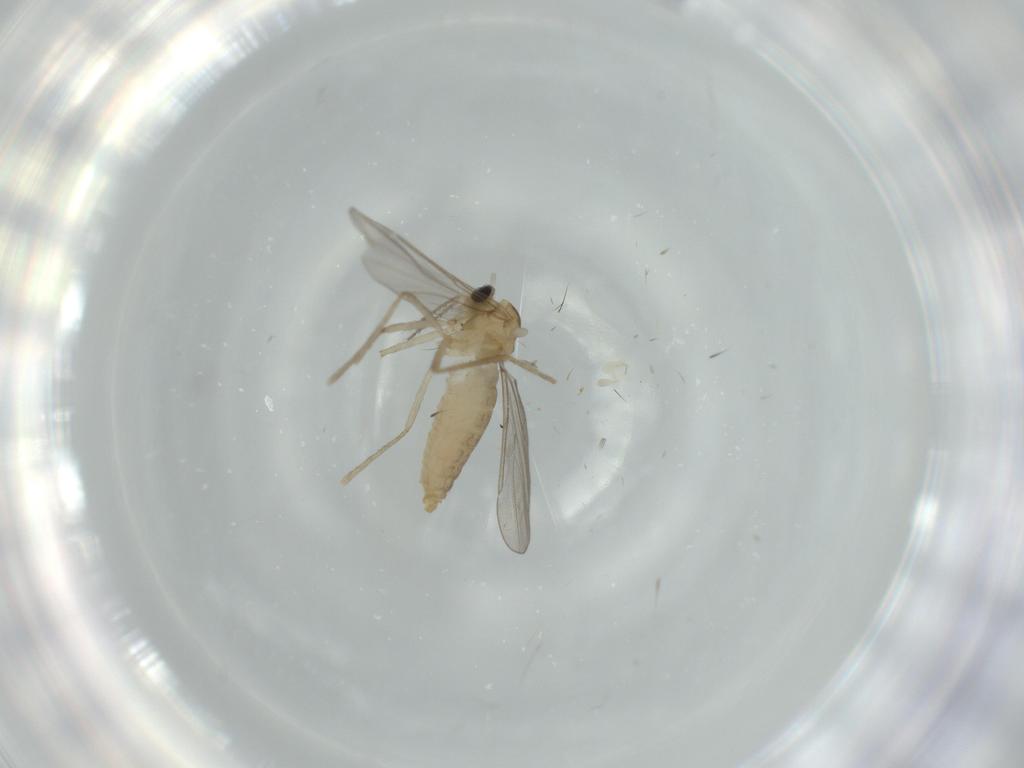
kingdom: Animalia
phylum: Arthropoda
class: Insecta
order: Diptera
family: Cecidomyiidae
